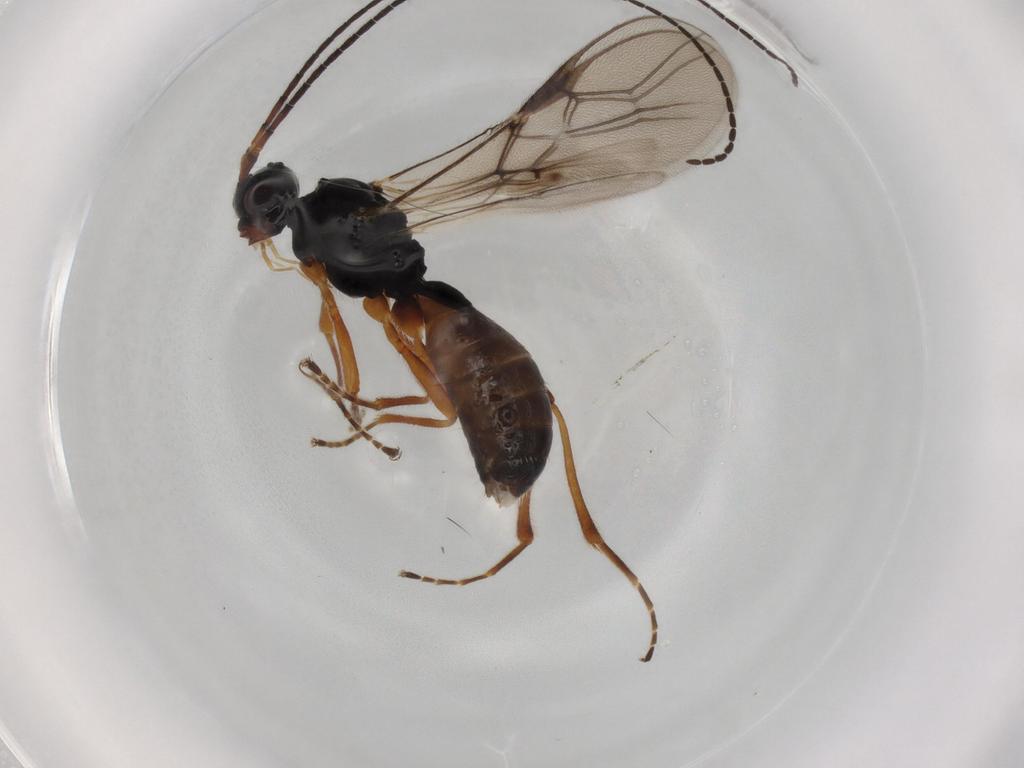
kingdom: Animalia
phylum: Arthropoda
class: Insecta
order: Hymenoptera
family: Braconidae
